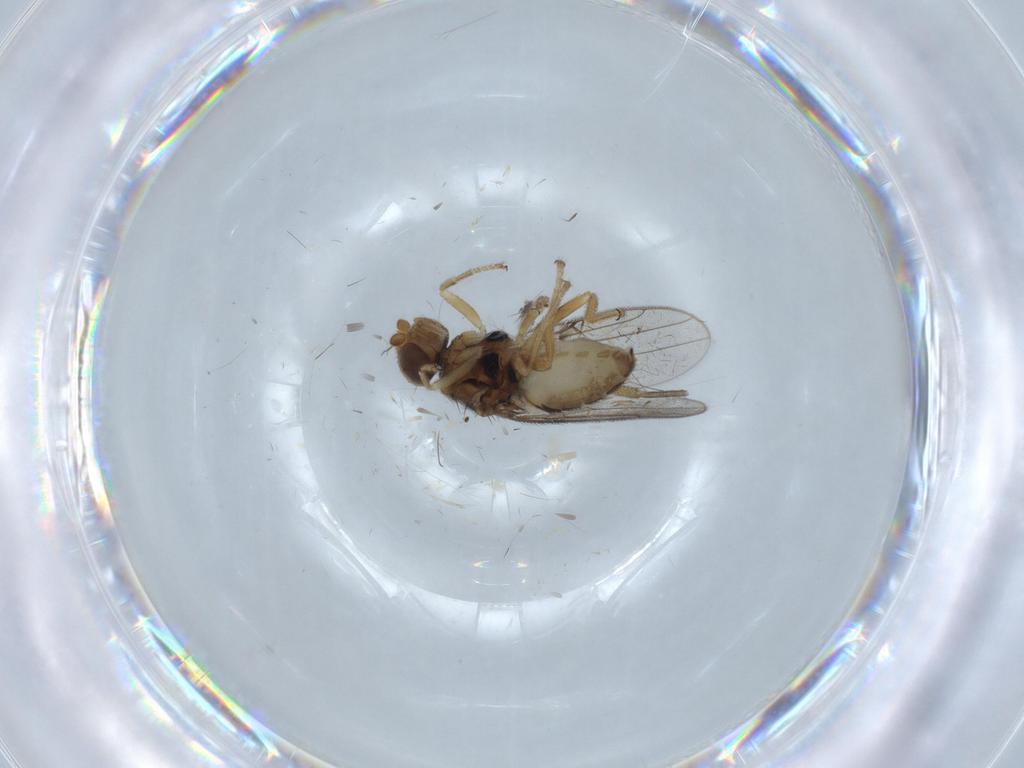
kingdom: Animalia
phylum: Arthropoda
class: Insecta
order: Diptera
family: Chloropidae
